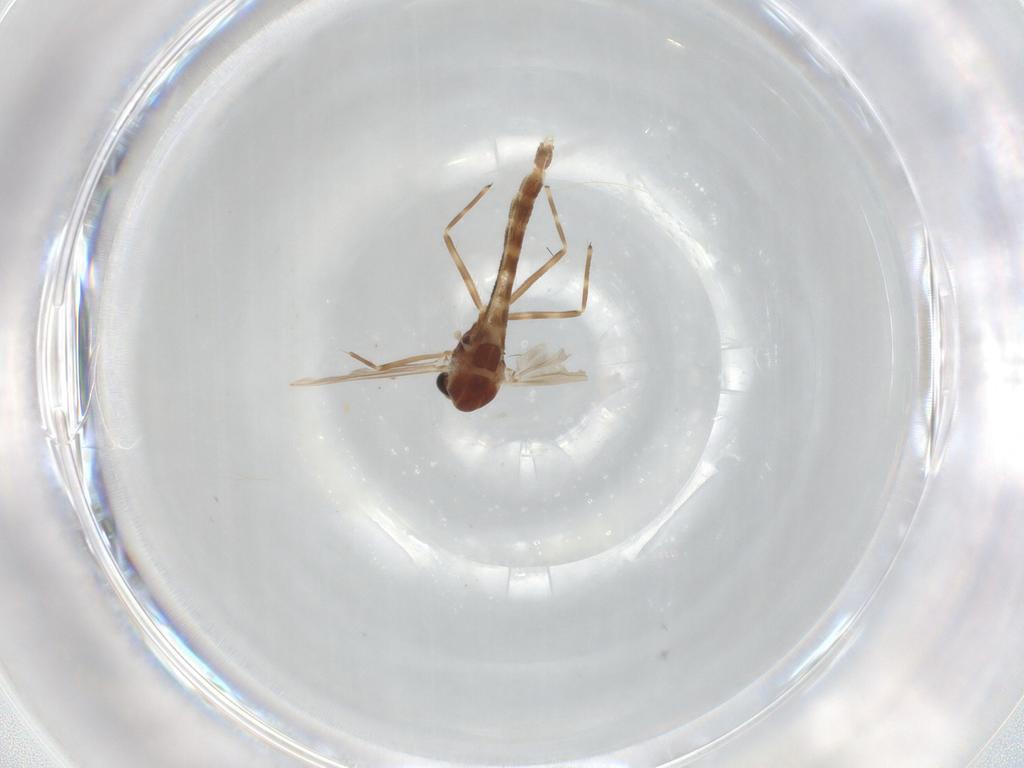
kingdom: Animalia
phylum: Arthropoda
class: Insecta
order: Diptera
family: Chironomidae
